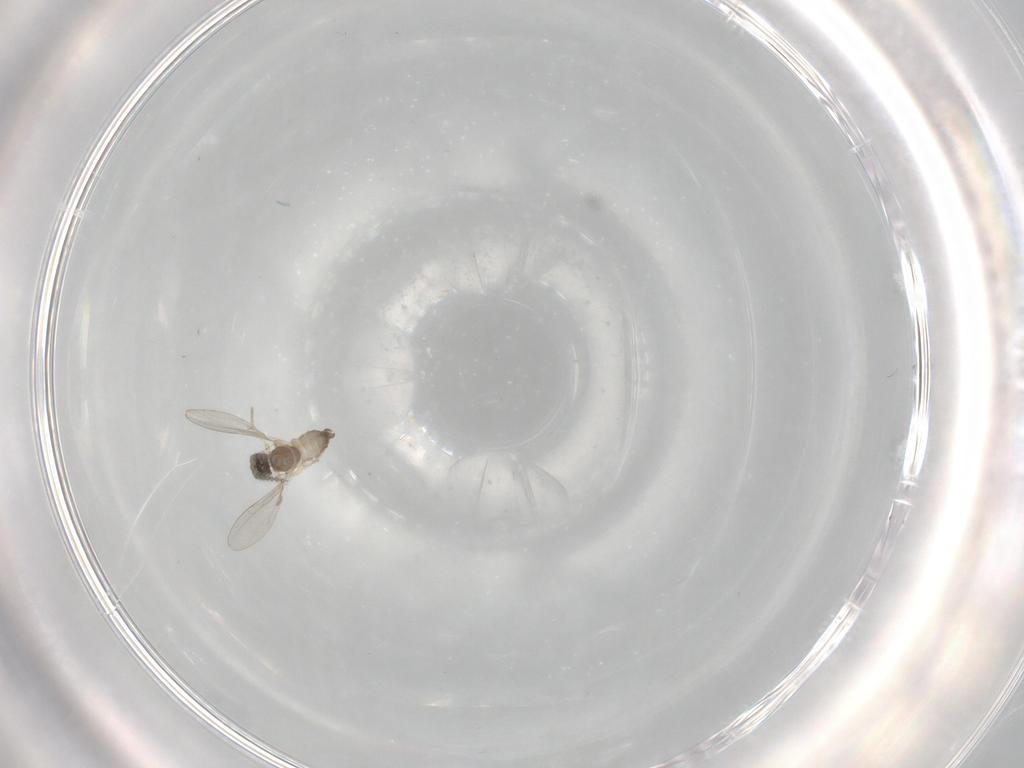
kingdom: Animalia
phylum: Arthropoda
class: Insecta
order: Diptera
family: Cecidomyiidae
